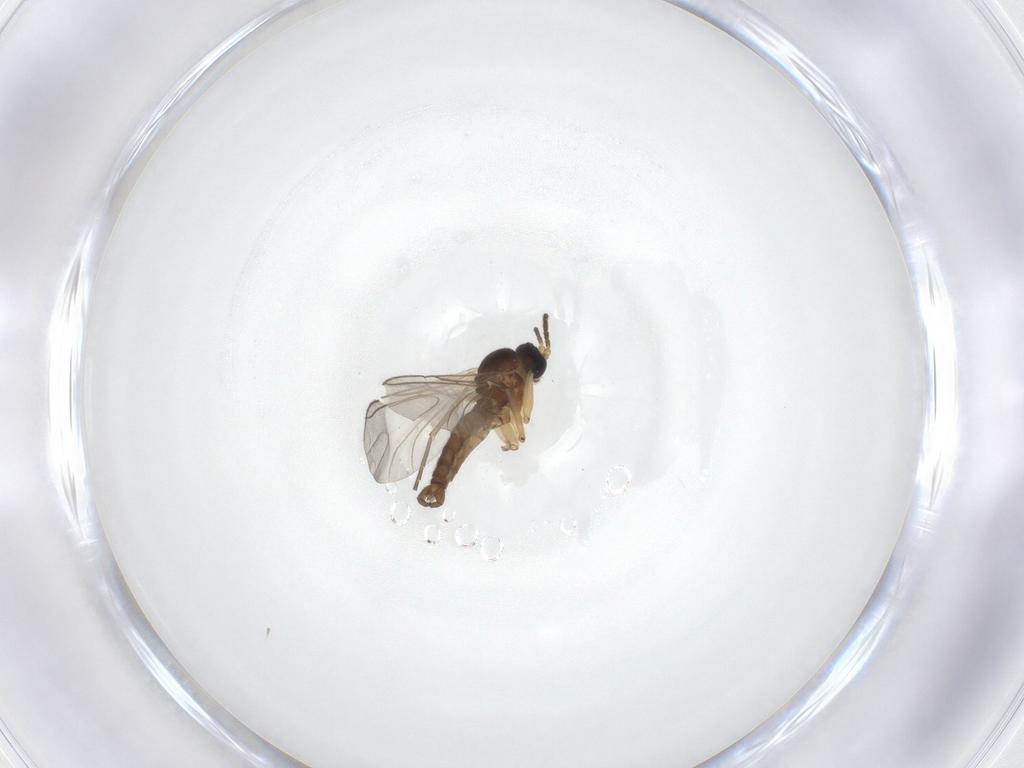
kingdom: Animalia
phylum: Arthropoda
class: Insecta
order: Diptera
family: Sciaridae
